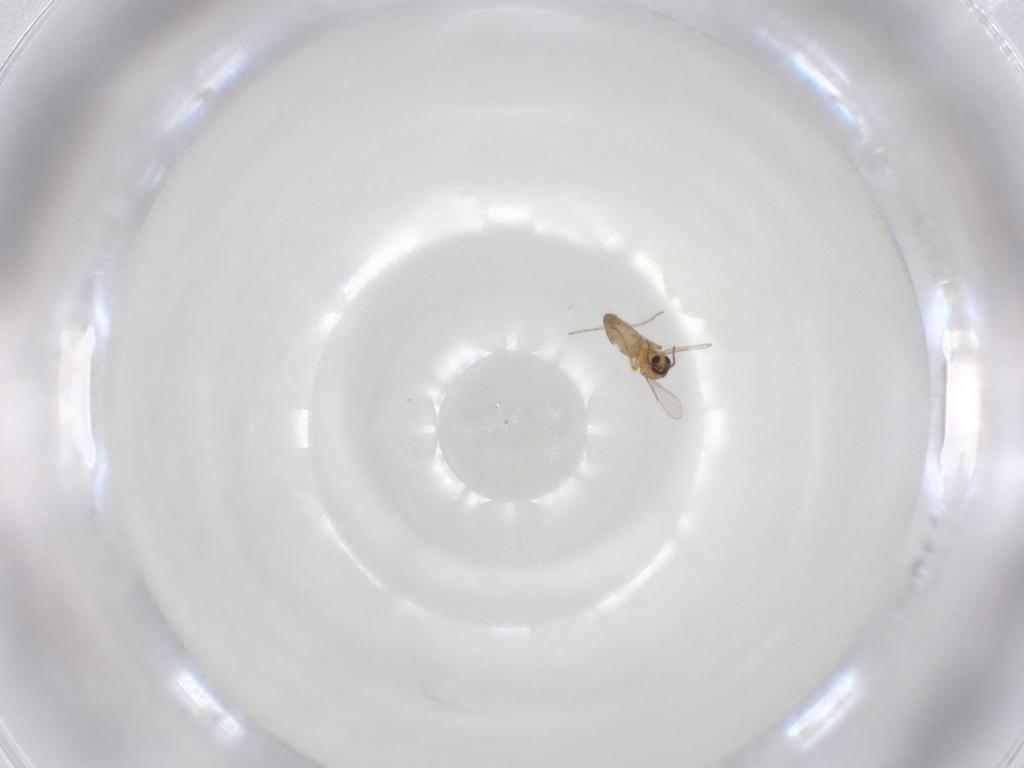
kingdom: Animalia
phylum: Arthropoda
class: Insecta
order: Diptera
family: Ceratopogonidae
